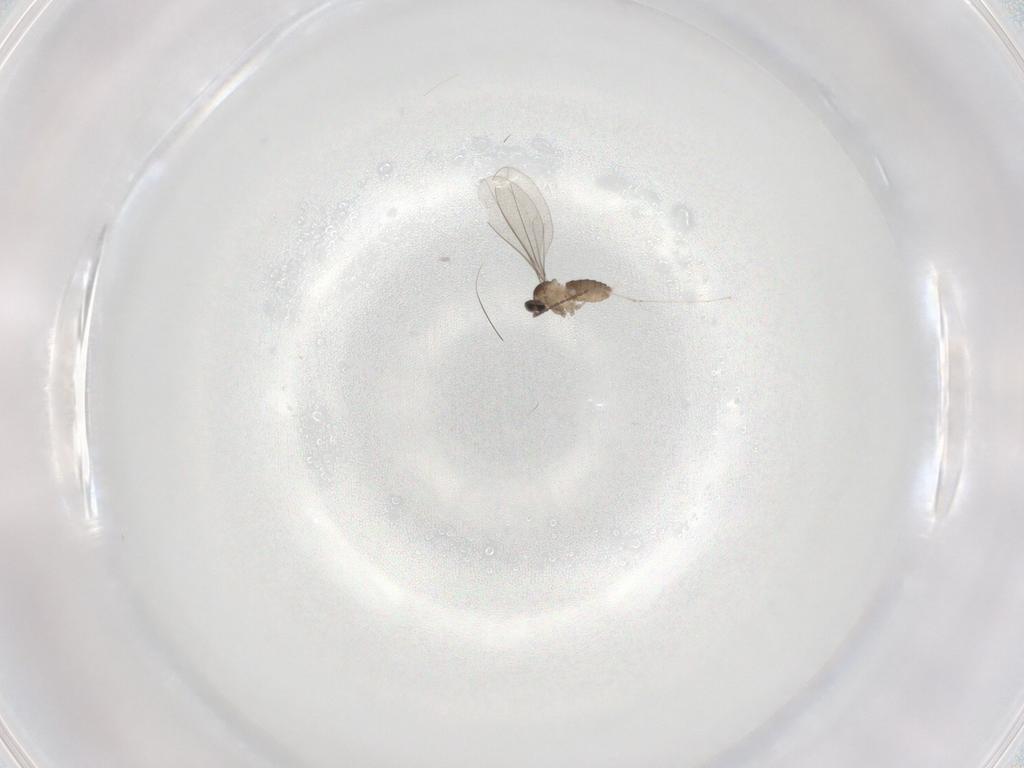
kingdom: Animalia
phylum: Arthropoda
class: Insecta
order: Diptera
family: Cecidomyiidae
